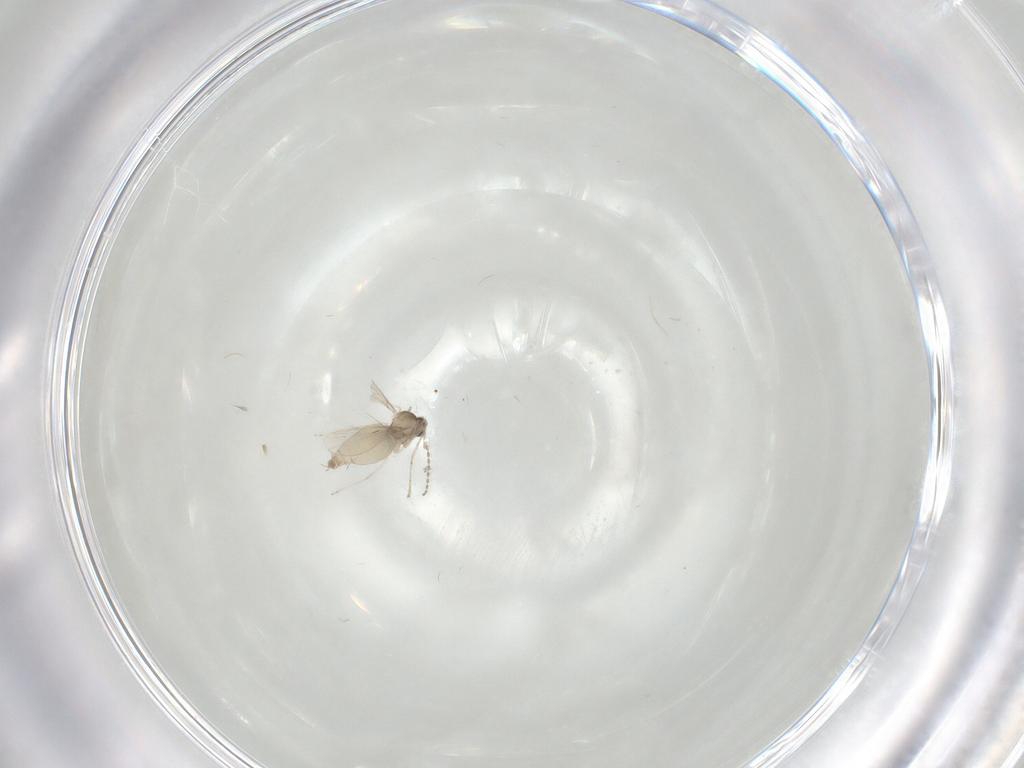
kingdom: Animalia
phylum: Arthropoda
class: Insecta
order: Diptera
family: Cecidomyiidae
